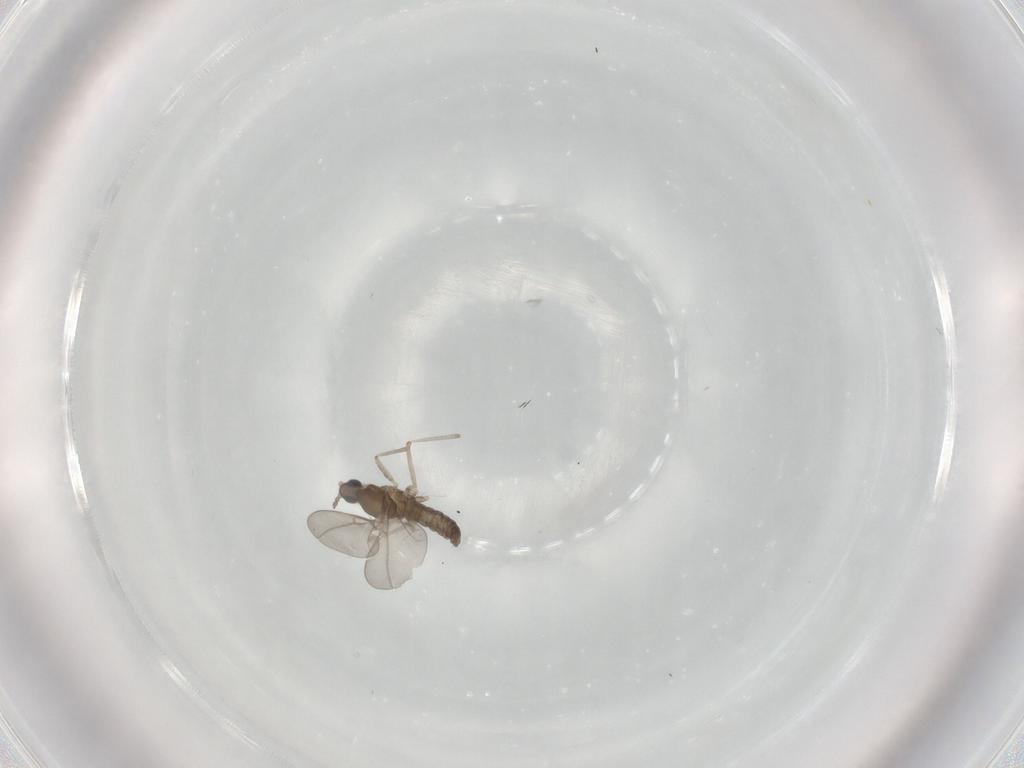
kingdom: Animalia
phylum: Arthropoda
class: Insecta
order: Diptera
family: Cecidomyiidae
